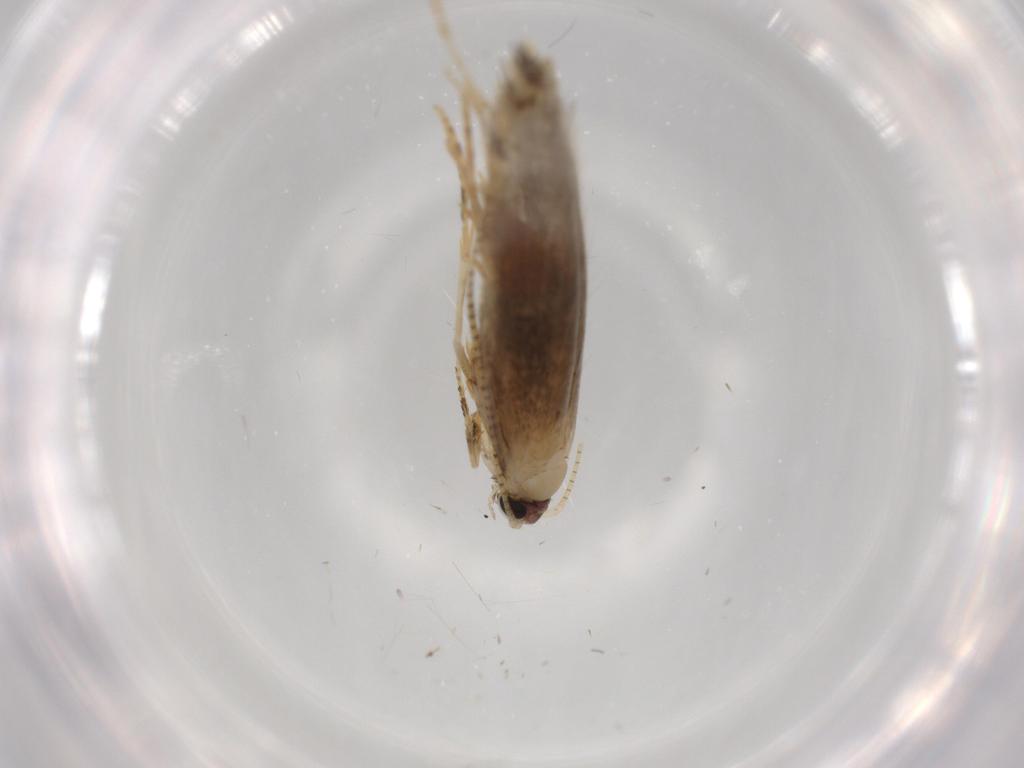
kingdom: Animalia
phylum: Arthropoda
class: Insecta
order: Lepidoptera
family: Tineidae
